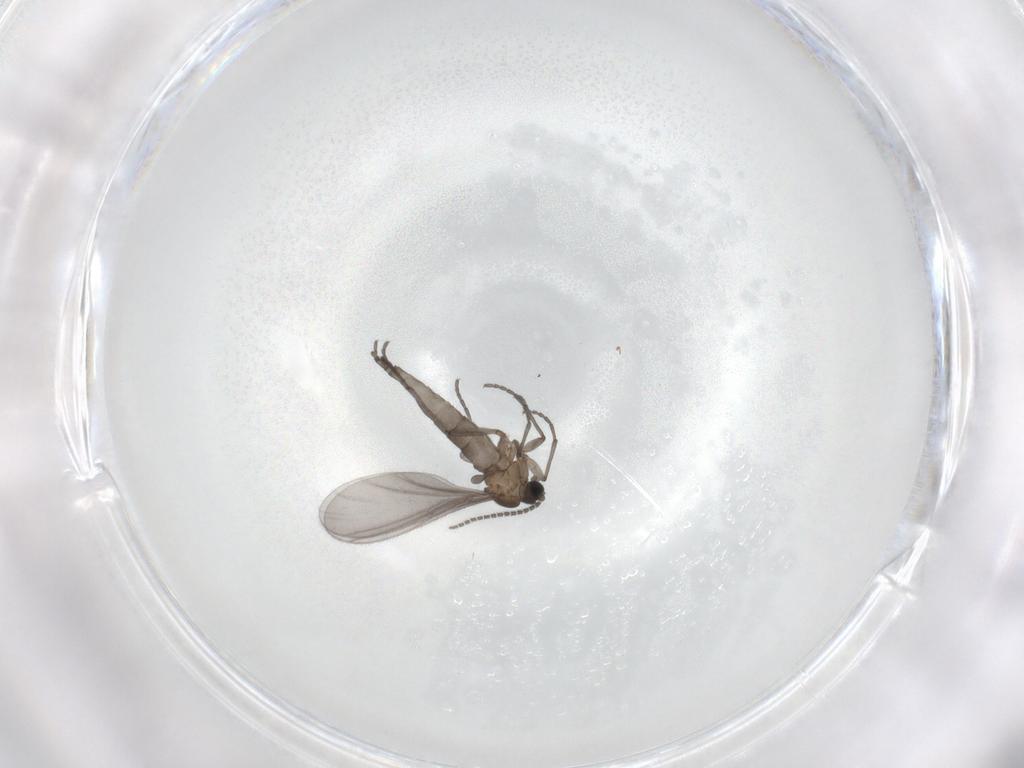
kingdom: Animalia
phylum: Arthropoda
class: Insecta
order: Diptera
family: Sciaridae
